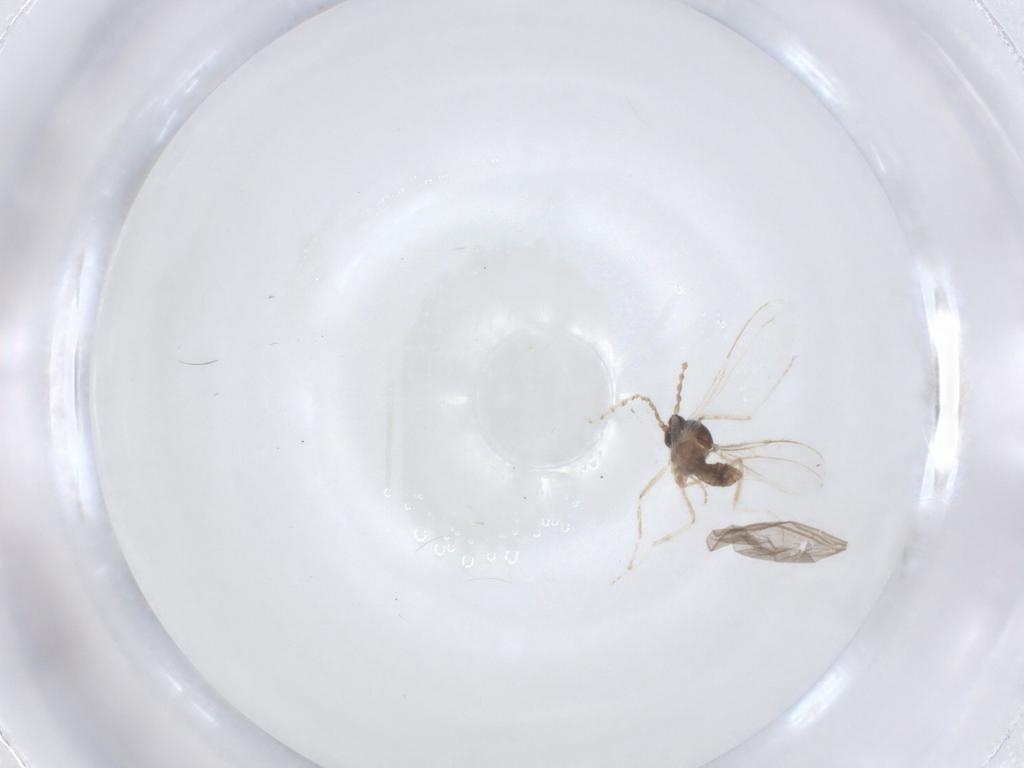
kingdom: Animalia
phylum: Arthropoda
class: Insecta
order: Diptera
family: Cecidomyiidae
